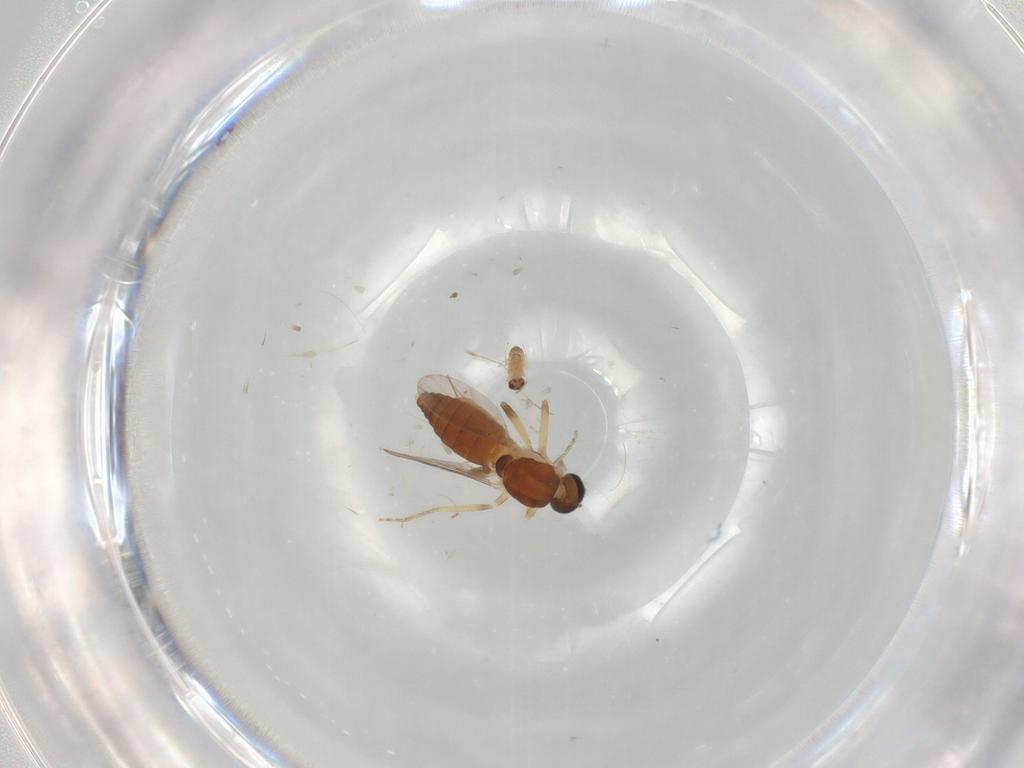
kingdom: Animalia
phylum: Arthropoda
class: Insecta
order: Diptera
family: Ceratopogonidae
